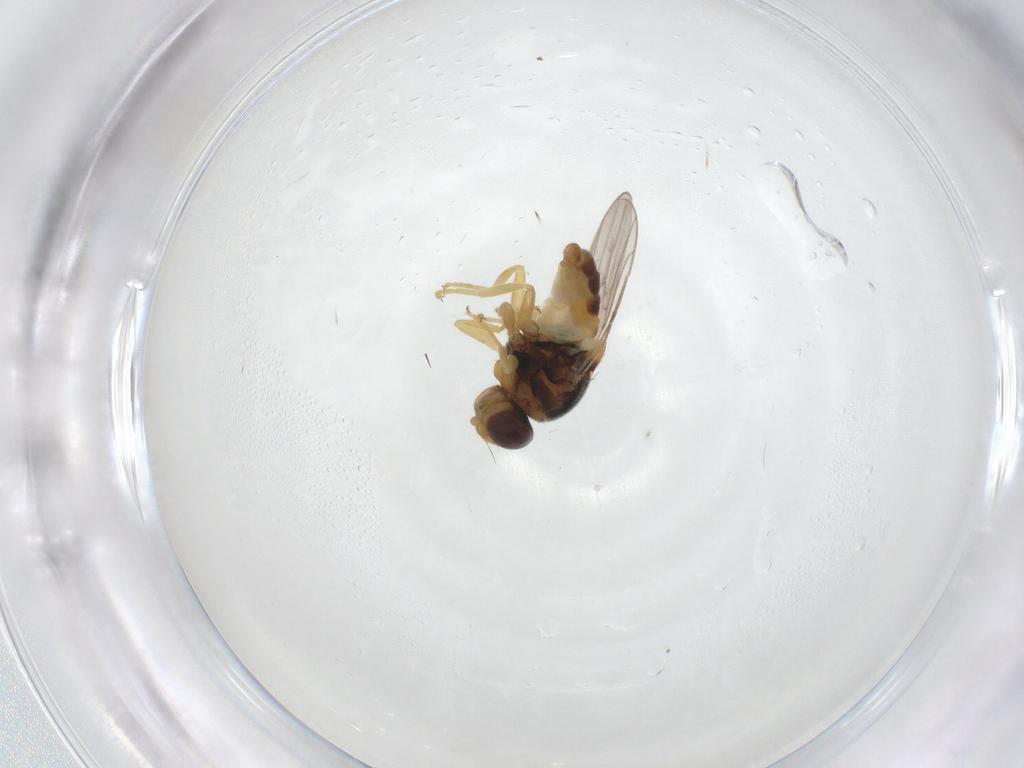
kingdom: Animalia
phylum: Arthropoda
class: Insecta
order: Diptera
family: Chloropidae
